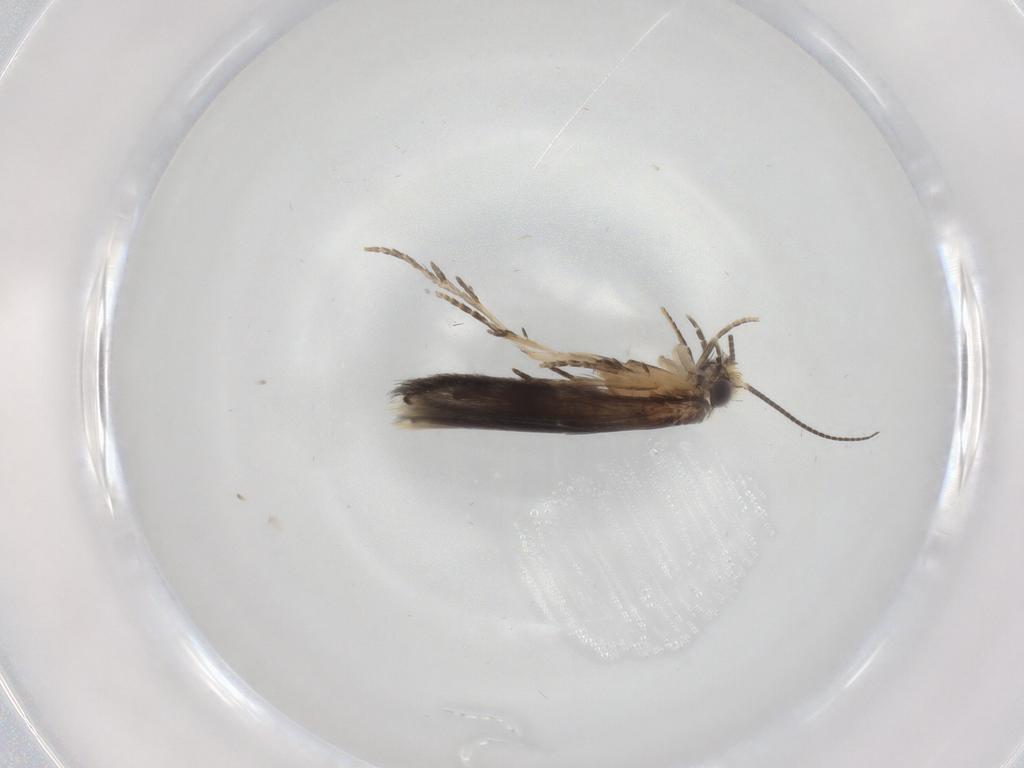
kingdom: Animalia
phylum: Arthropoda
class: Insecta
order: Trichoptera
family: Hydroptilidae
